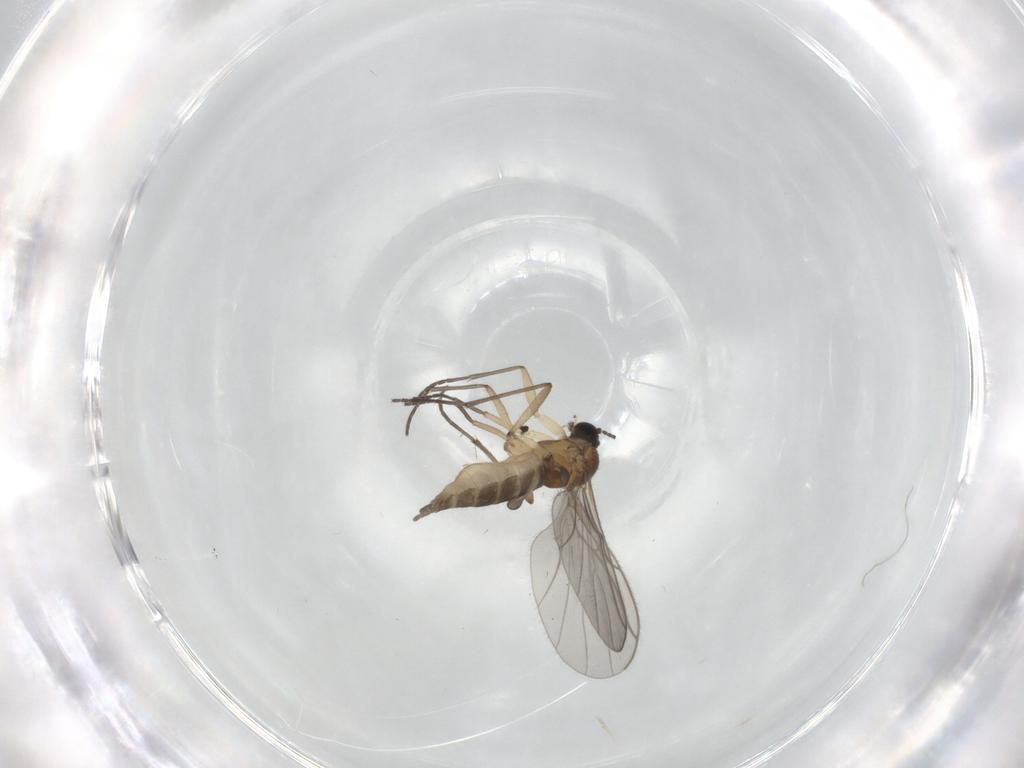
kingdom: Animalia
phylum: Arthropoda
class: Insecta
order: Diptera
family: Sciaridae
